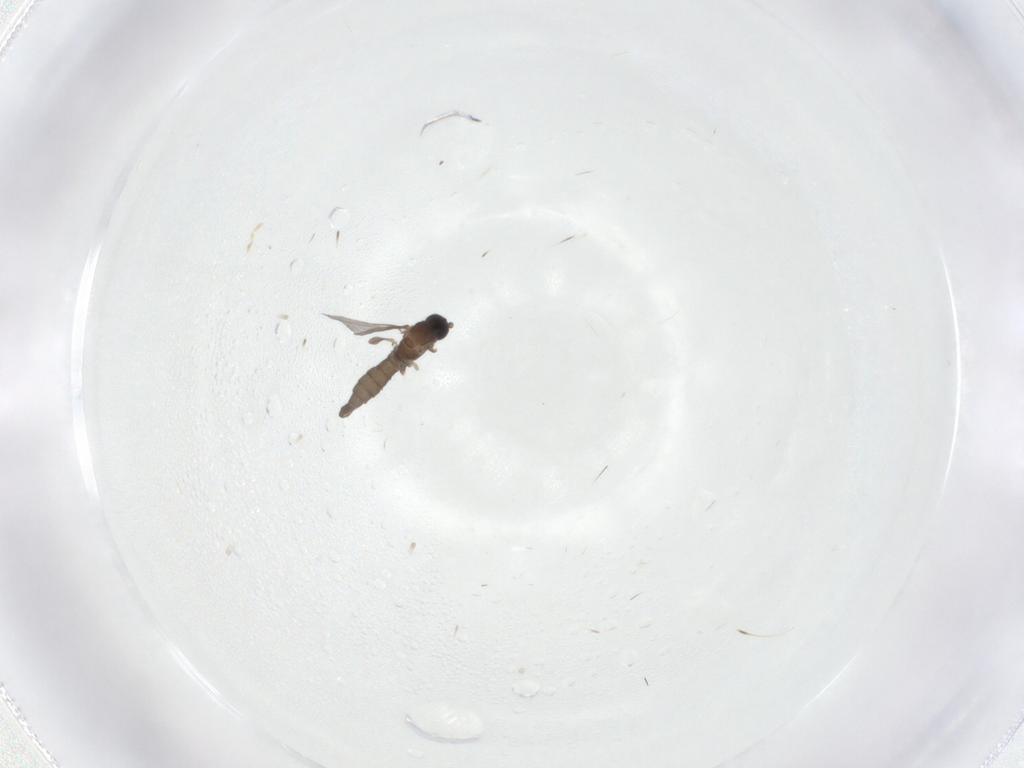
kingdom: Animalia
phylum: Arthropoda
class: Insecta
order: Diptera
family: Sciaridae
